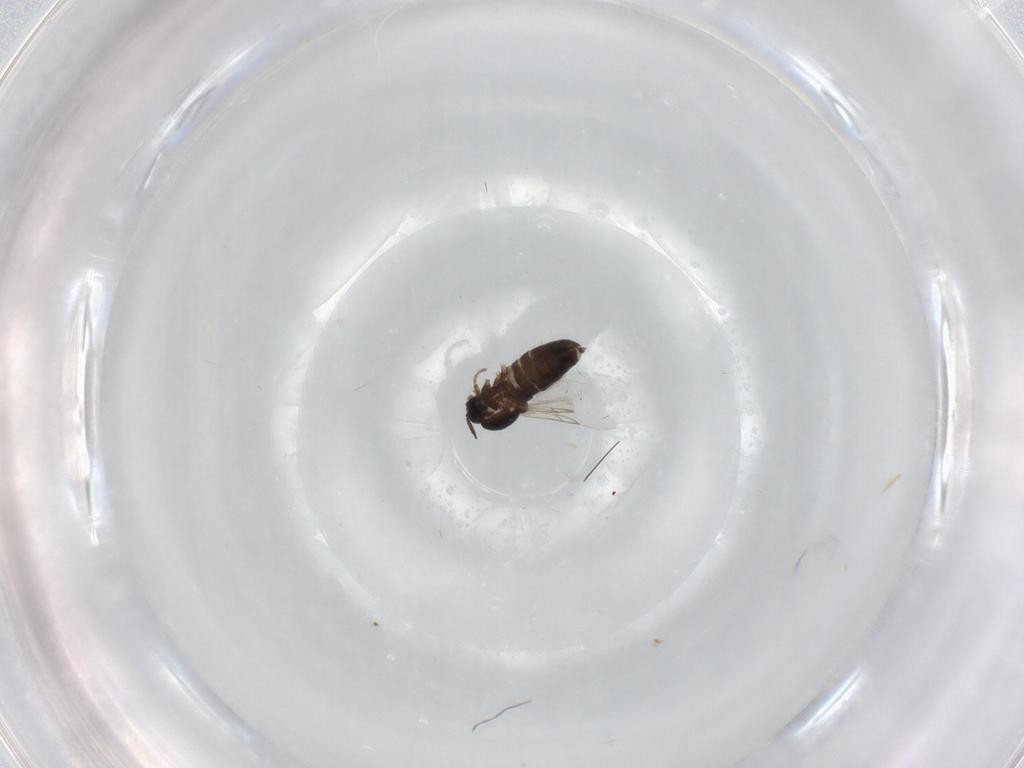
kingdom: Animalia
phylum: Arthropoda
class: Insecta
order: Diptera
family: Scatopsidae
